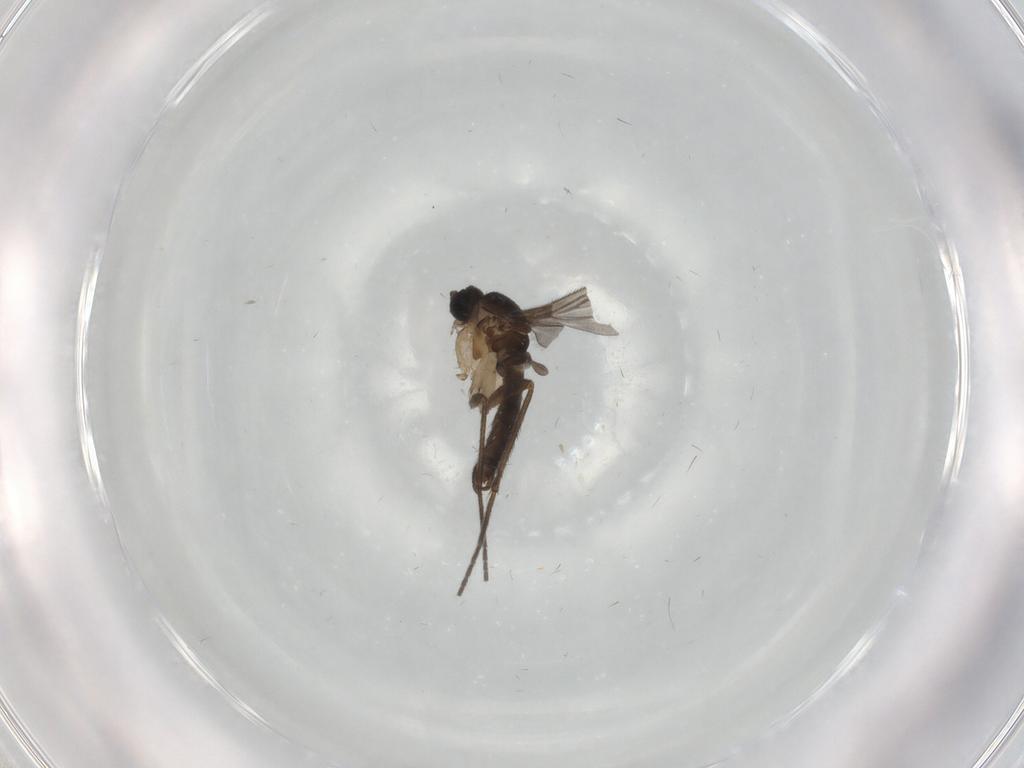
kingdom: Animalia
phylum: Arthropoda
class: Insecta
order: Diptera
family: Sciaridae
